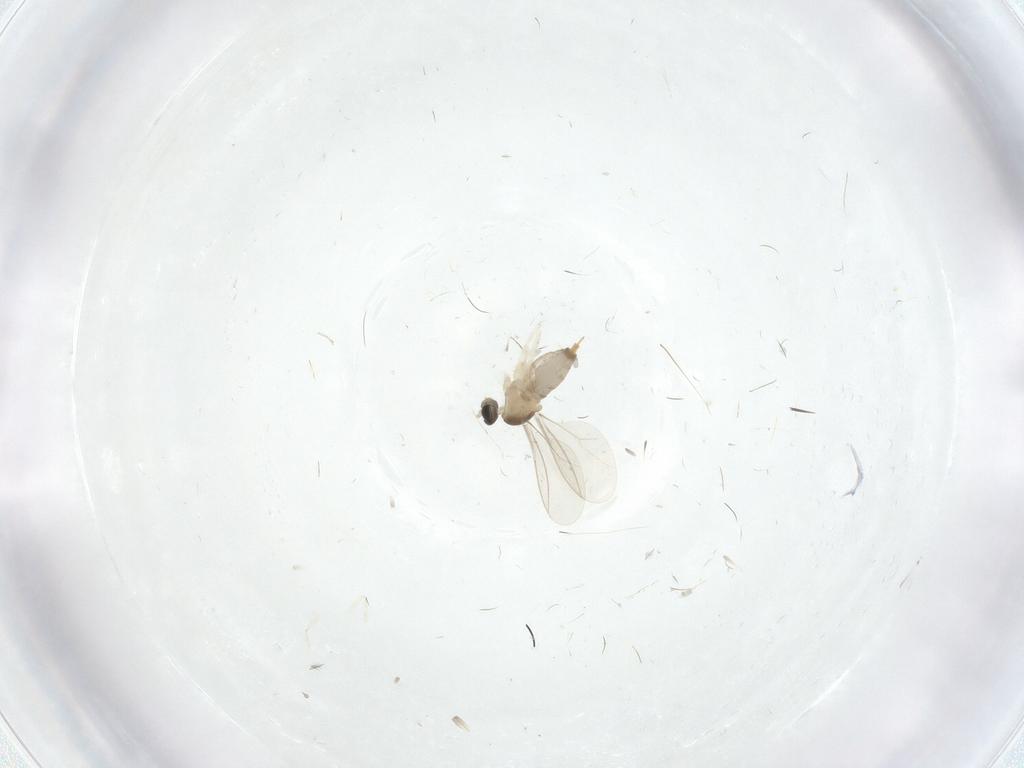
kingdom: Animalia
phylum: Arthropoda
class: Insecta
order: Diptera
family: Cecidomyiidae
